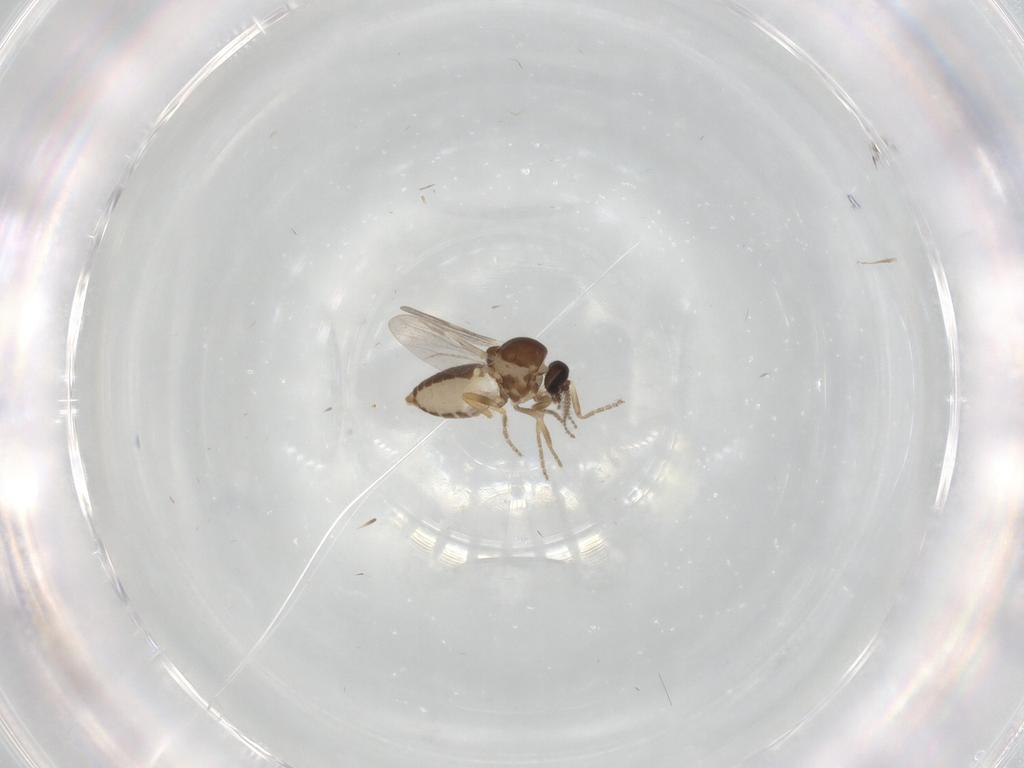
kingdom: Animalia
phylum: Arthropoda
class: Insecta
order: Diptera
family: Ceratopogonidae
